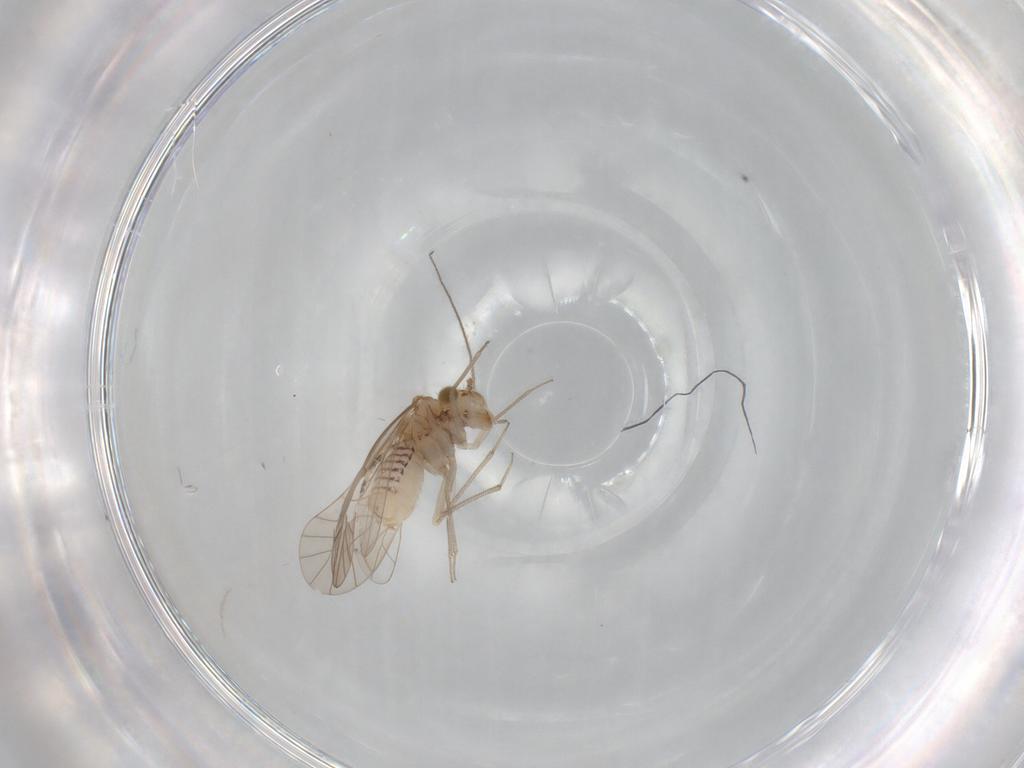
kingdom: Animalia
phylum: Arthropoda
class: Insecta
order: Psocodea
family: Lachesillidae
